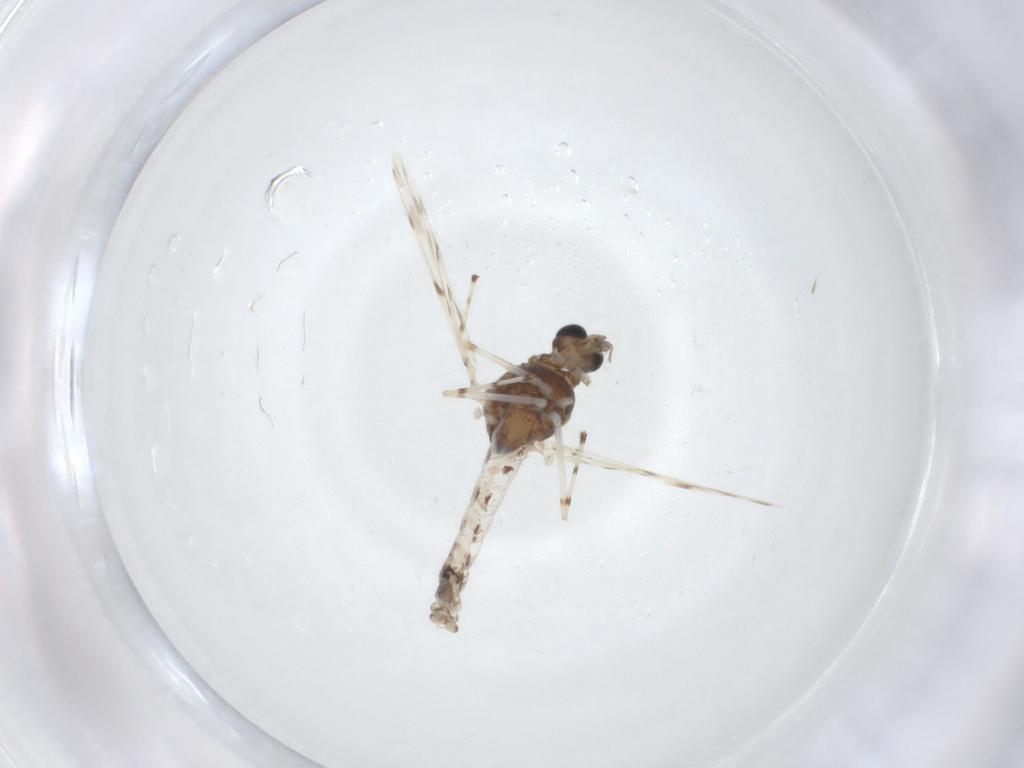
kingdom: Animalia
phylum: Arthropoda
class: Insecta
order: Diptera
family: Chironomidae
